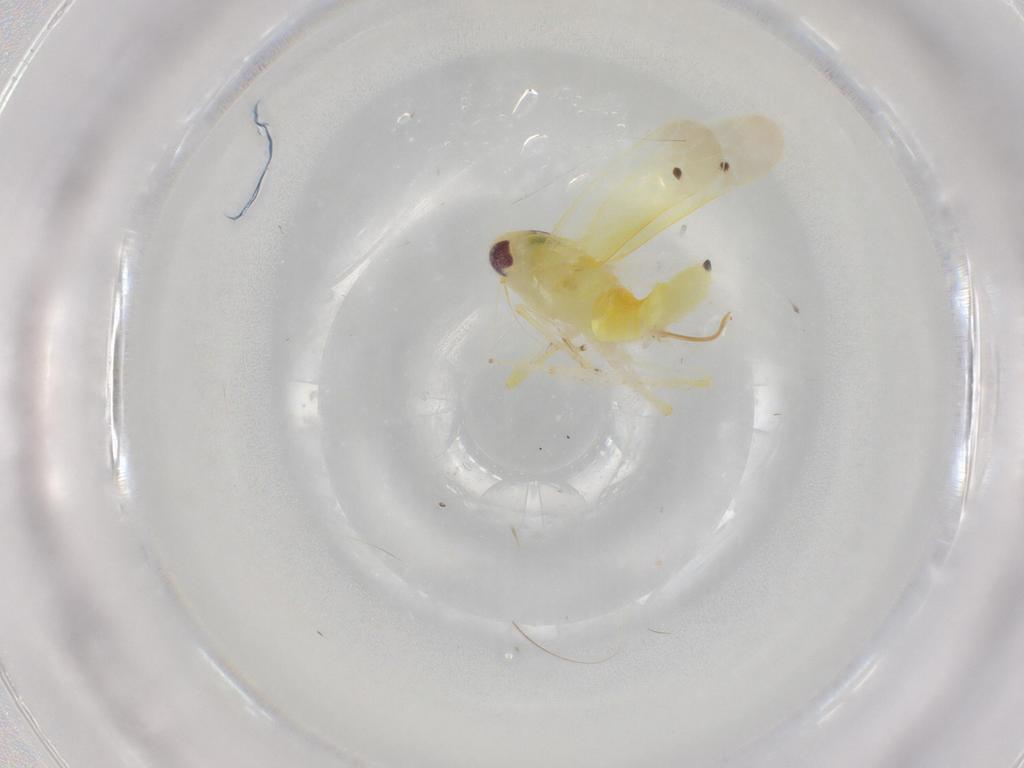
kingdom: Animalia
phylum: Arthropoda
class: Insecta
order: Hemiptera
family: Cicadellidae
